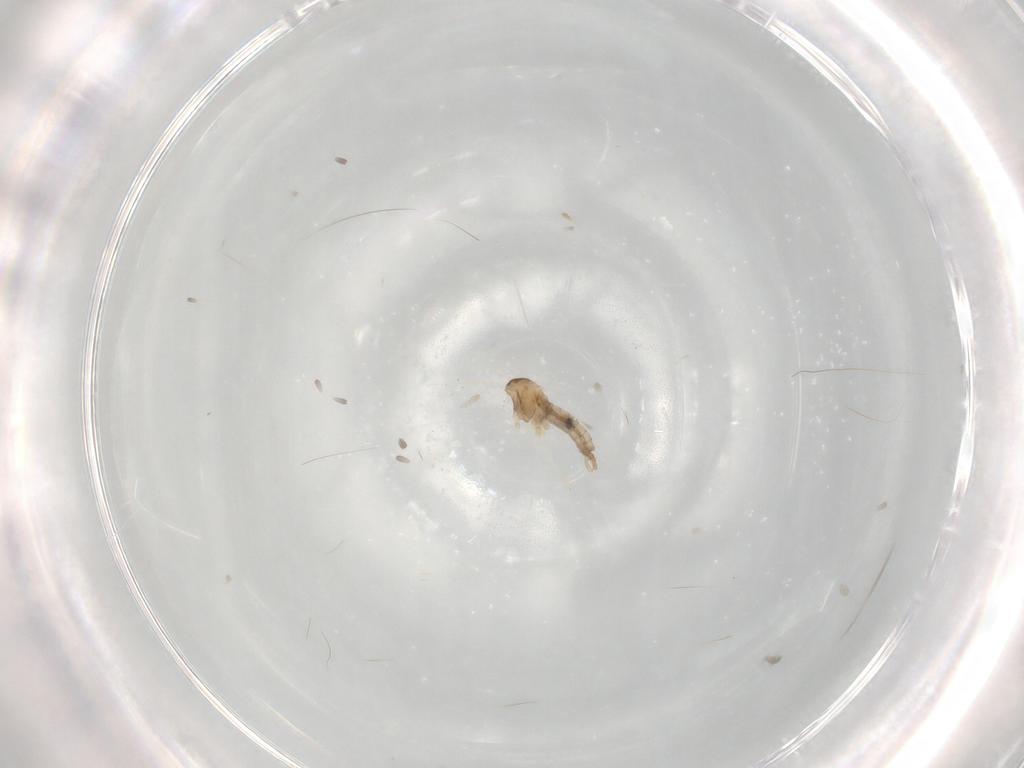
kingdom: Animalia
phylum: Arthropoda
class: Insecta
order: Diptera
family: Cecidomyiidae
